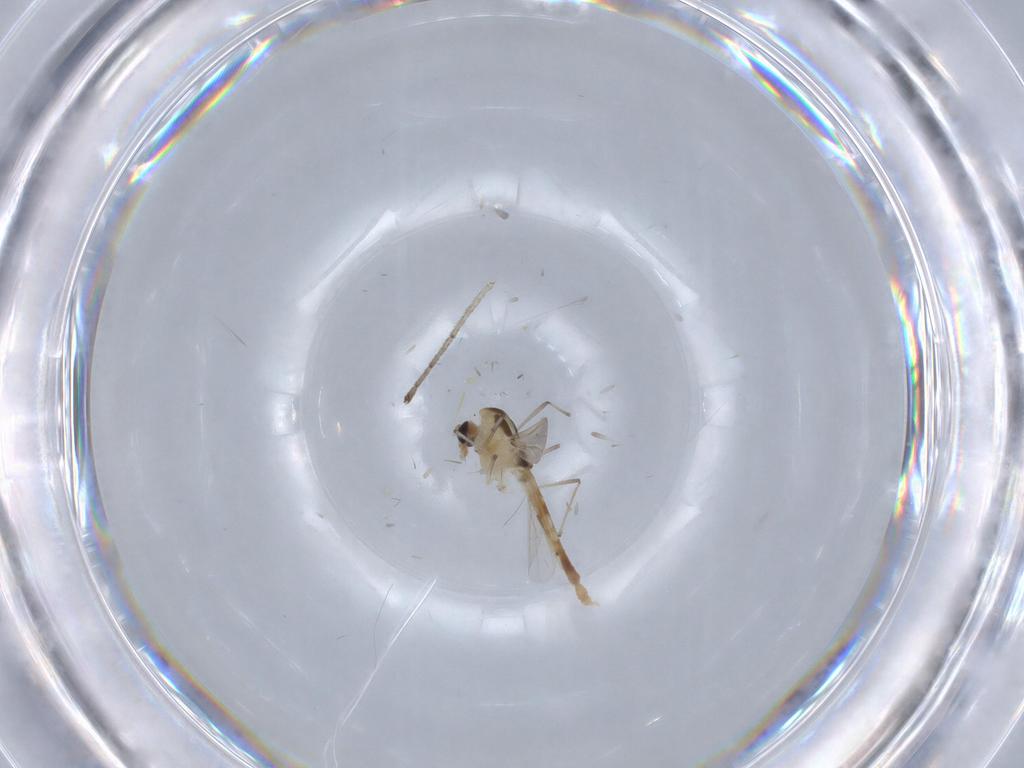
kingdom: Animalia
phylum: Arthropoda
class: Insecta
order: Diptera
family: Chironomidae
